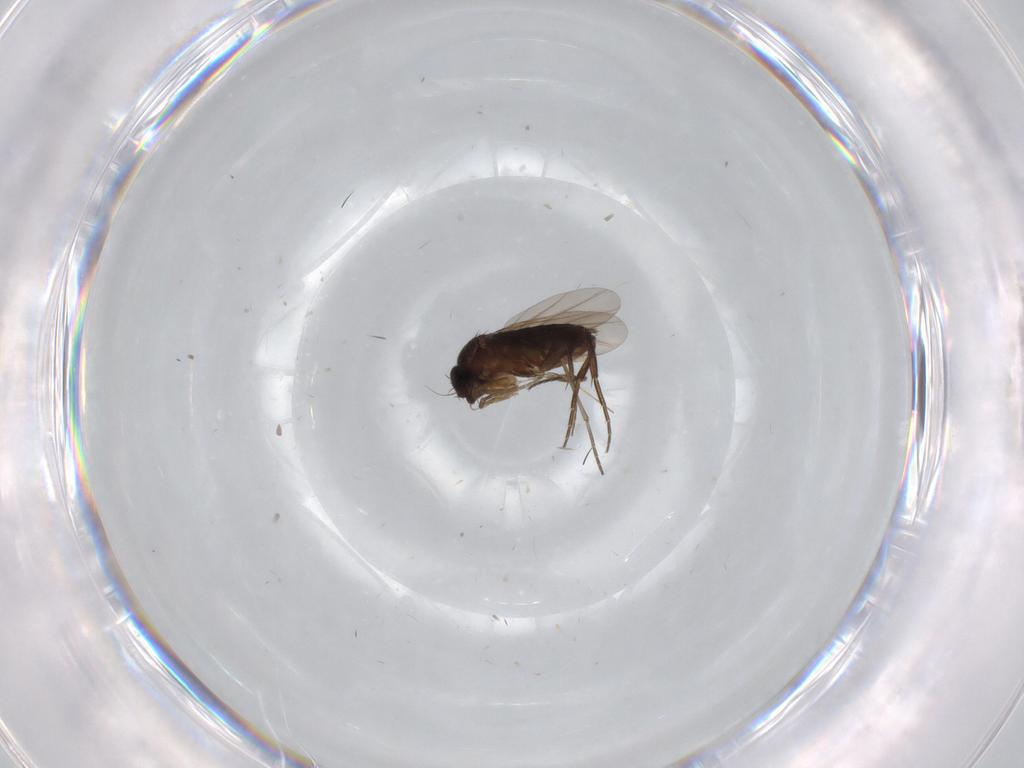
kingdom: Animalia
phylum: Arthropoda
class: Insecta
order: Diptera
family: Phoridae
